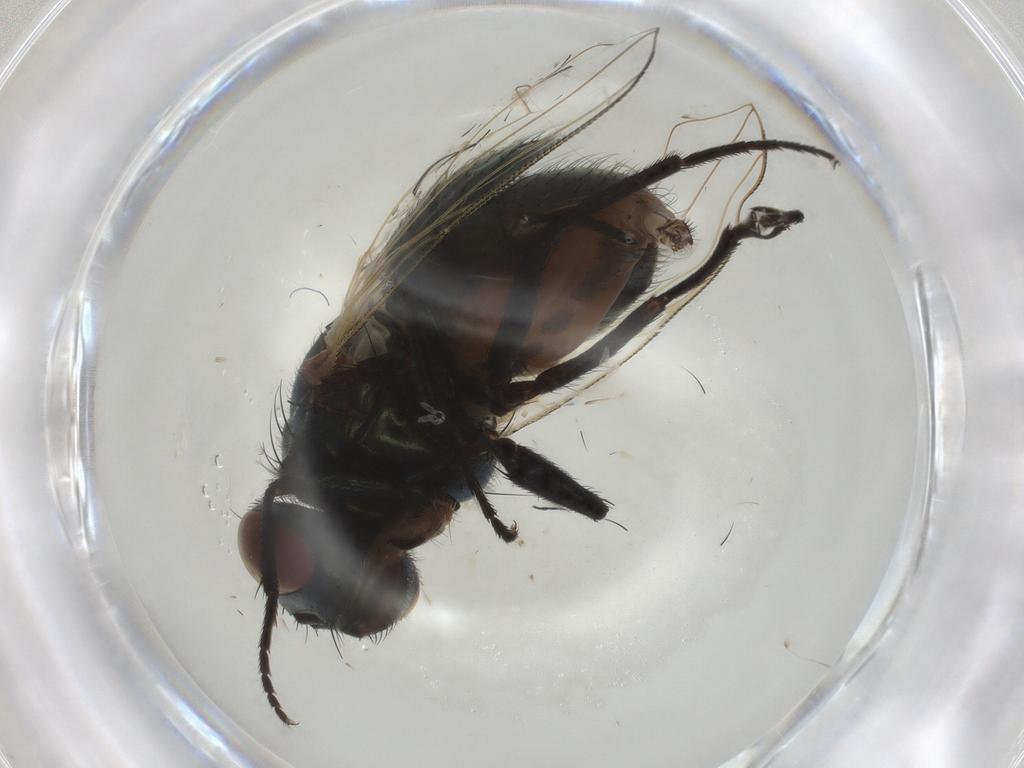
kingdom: Animalia
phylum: Arthropoda
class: Insecta
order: Diptera
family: Muscidae
